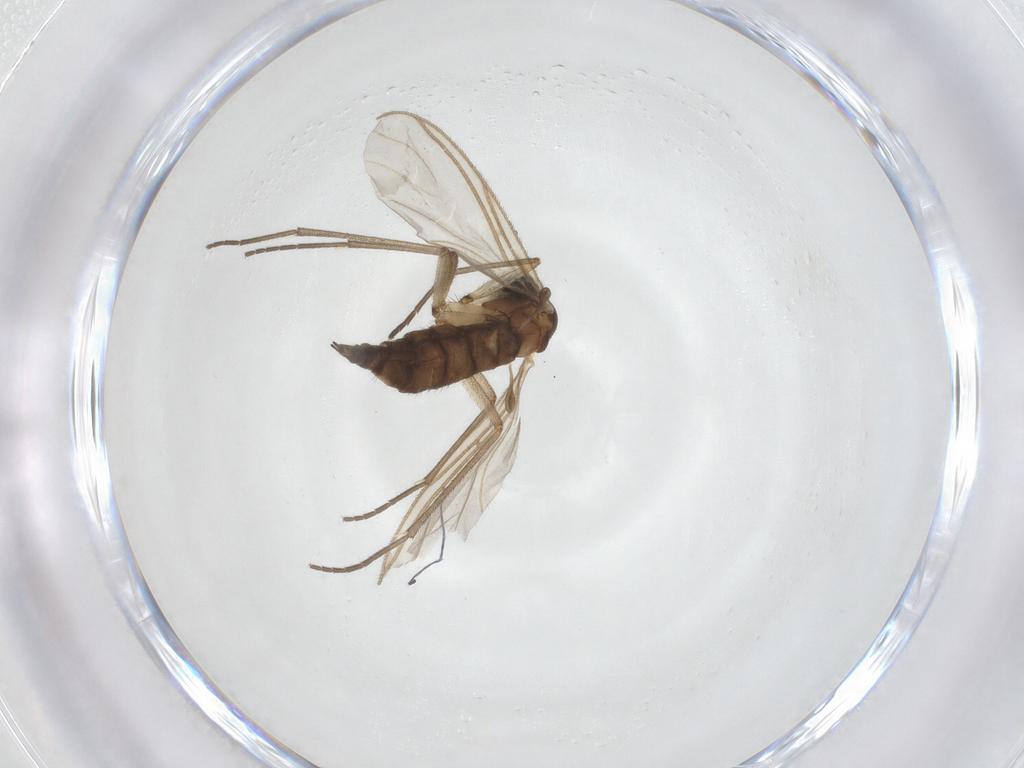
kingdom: Animalia
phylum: Arthropoda
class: Insecta
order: Diptera
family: Sciaridae
